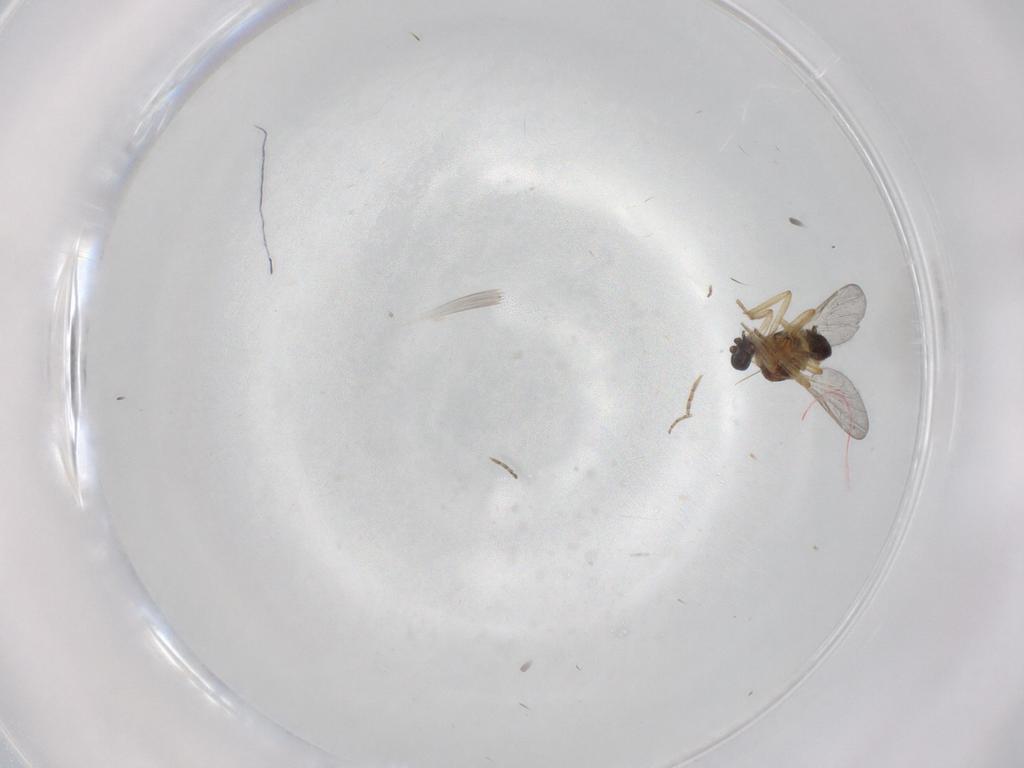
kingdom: Animalia
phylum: Arthropoda
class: Insecta
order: Diptera
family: Ceratopogonidae
